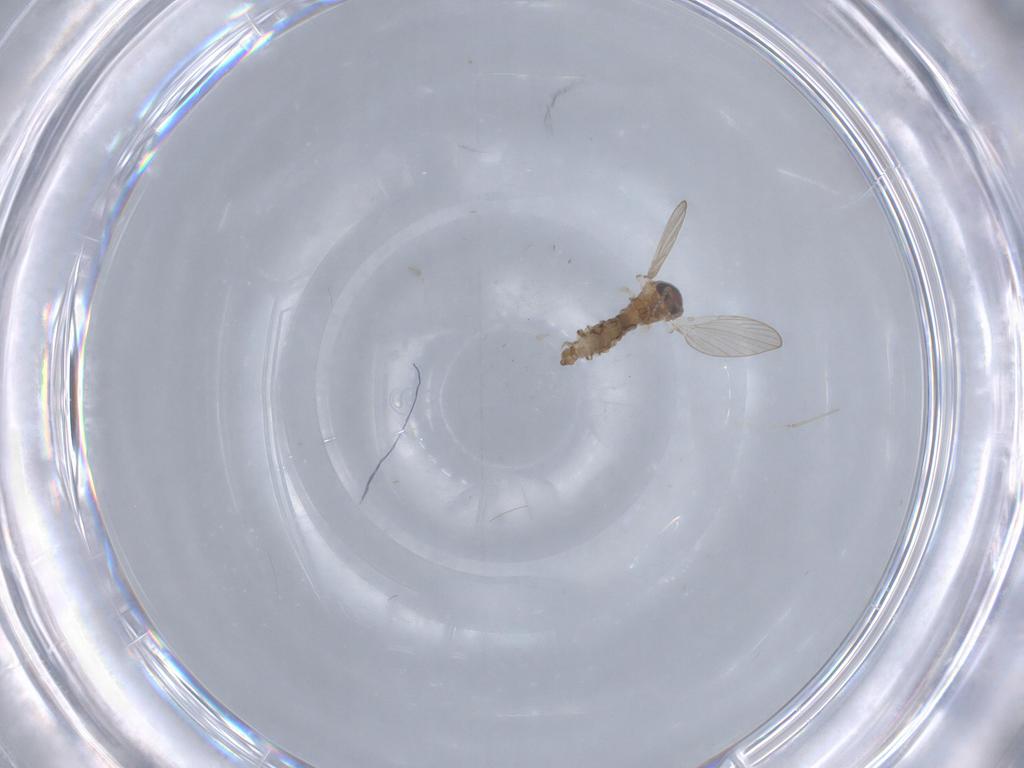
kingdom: Animalia
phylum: Arthropoda
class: Insecta
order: Diptera
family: Psychodidae
